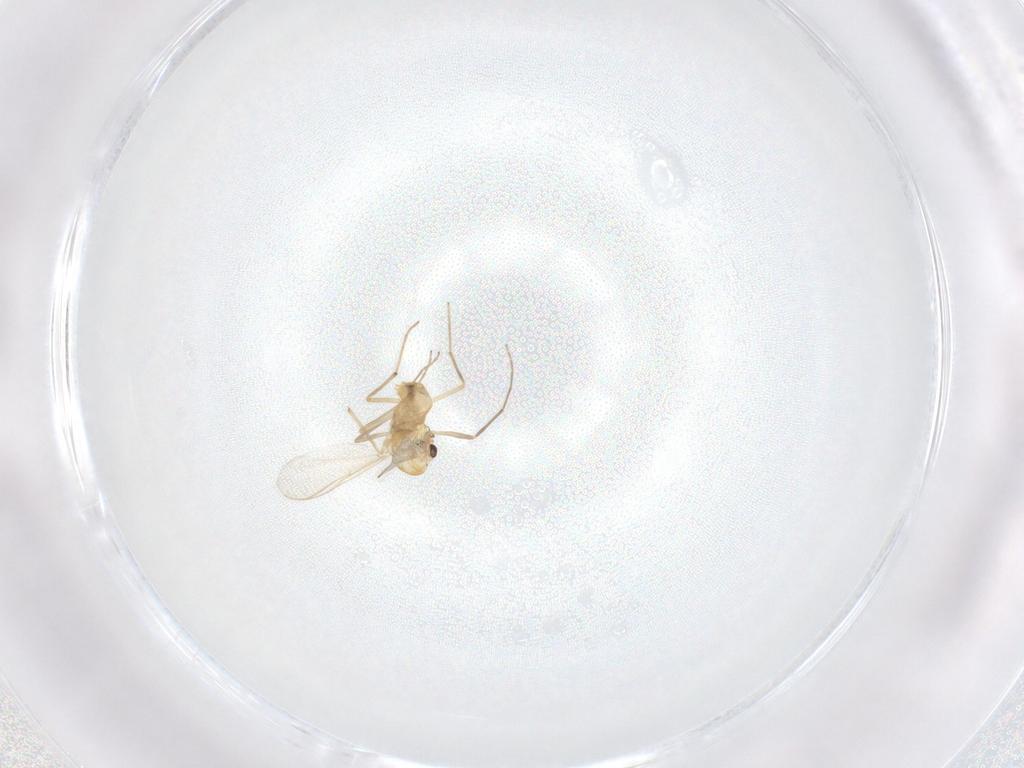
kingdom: Animalia
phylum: Arthropoda
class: Insecta
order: Diptera
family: Chironomidae
